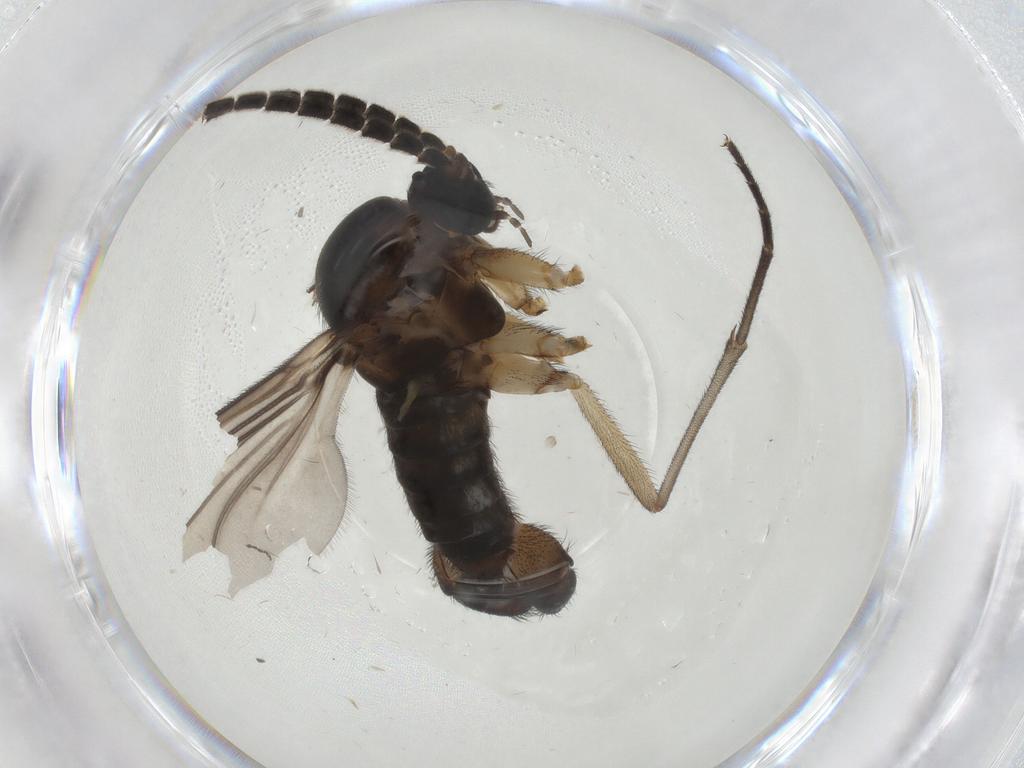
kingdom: Animalia
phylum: Arthropoda
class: Insecta
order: Diptera
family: Sphaeroceridae
